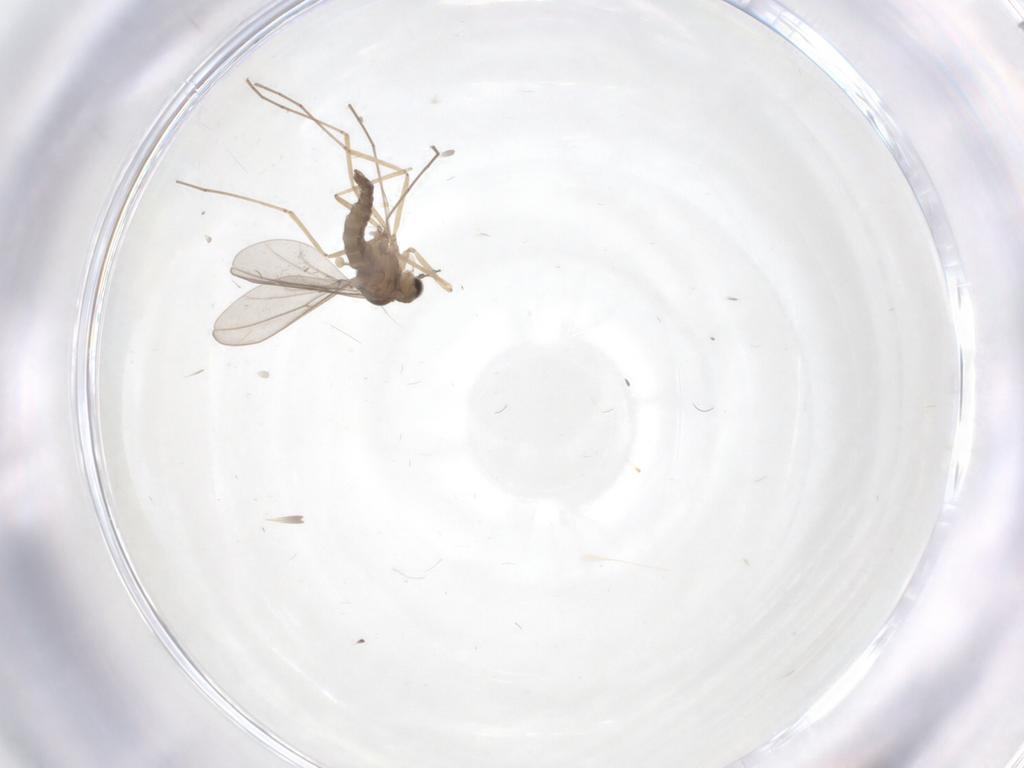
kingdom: Animalia
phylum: Arthropoda
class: Insecta
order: Diptera
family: Cecidomyiidae
